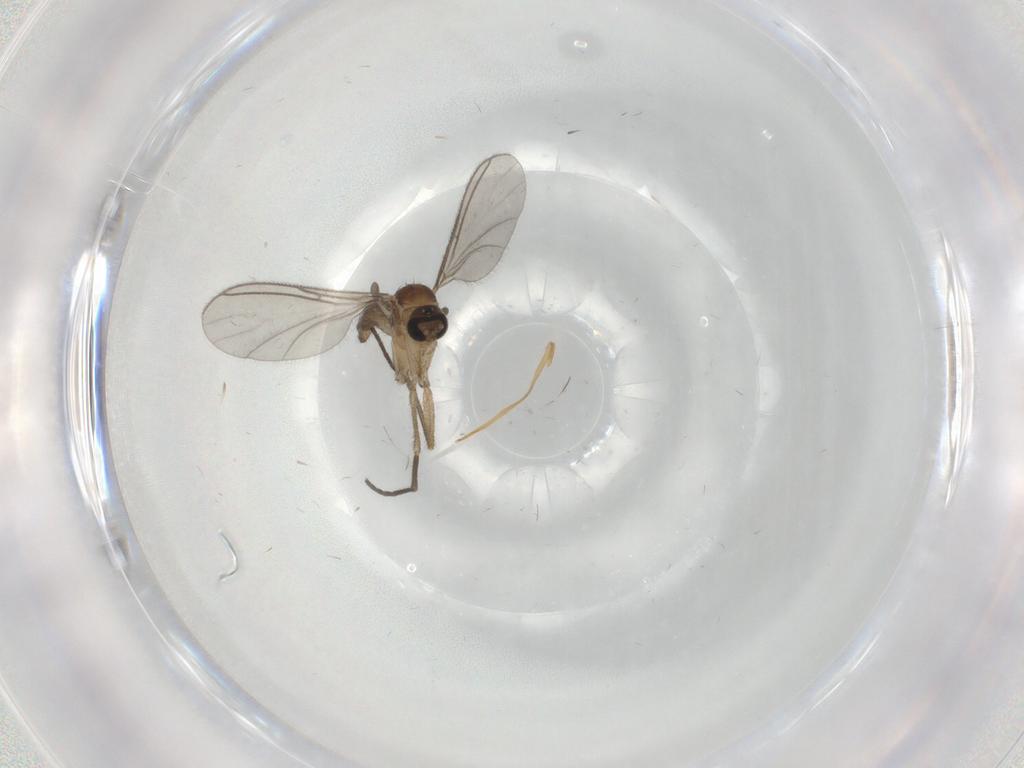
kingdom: Animalia
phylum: Arthropoda
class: Insecta
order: Diptera
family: Sciaridae
